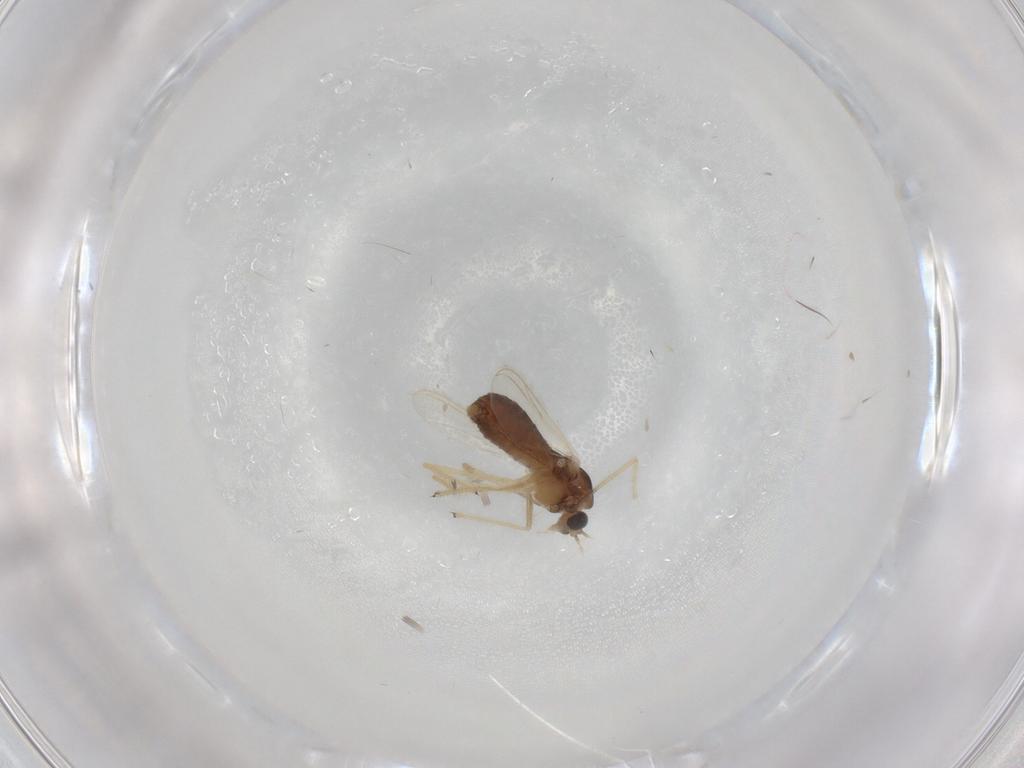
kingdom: Animalia
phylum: Arthropoda
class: Insecta
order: Diptera
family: Chironomidae
